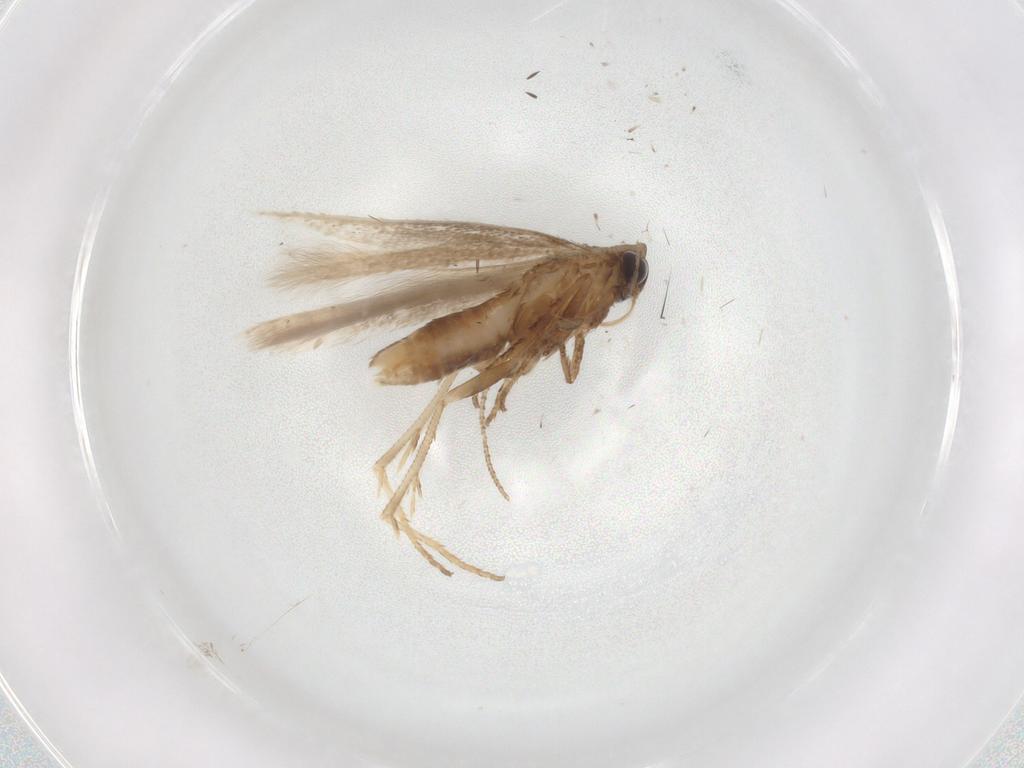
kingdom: Animalia
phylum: Arthropoda
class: Insecta
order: Lepidoptera
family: Gelechiidae
